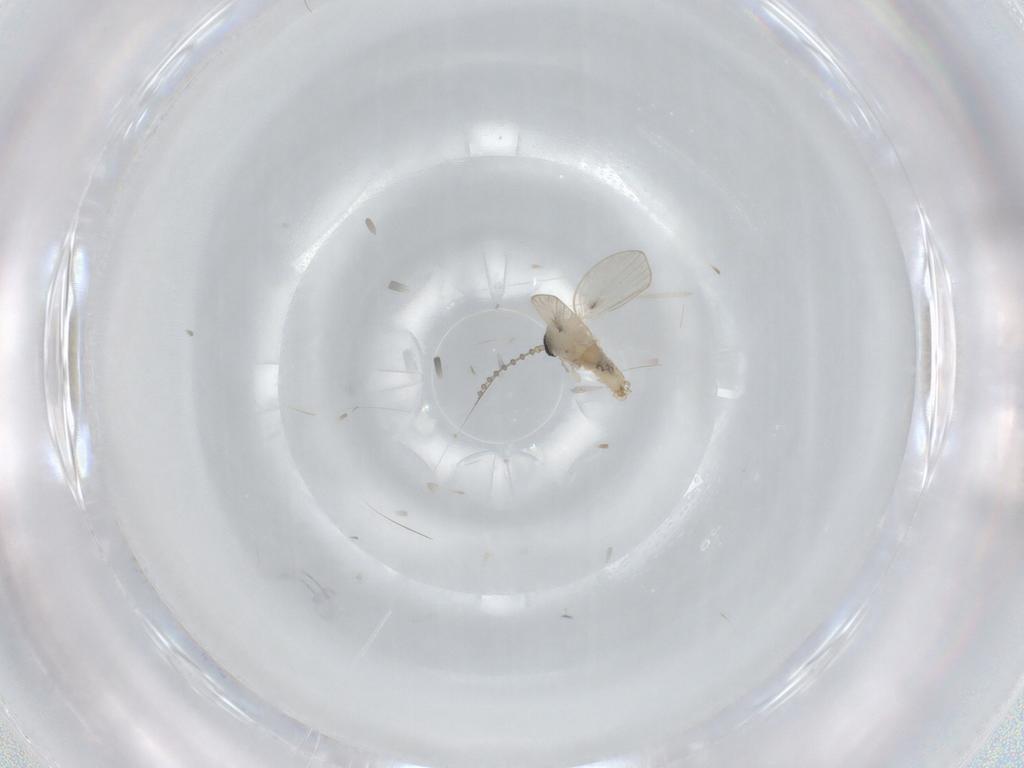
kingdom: Animalia
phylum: Arthropoda
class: Insecta
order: Diptera
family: Psychodidae
